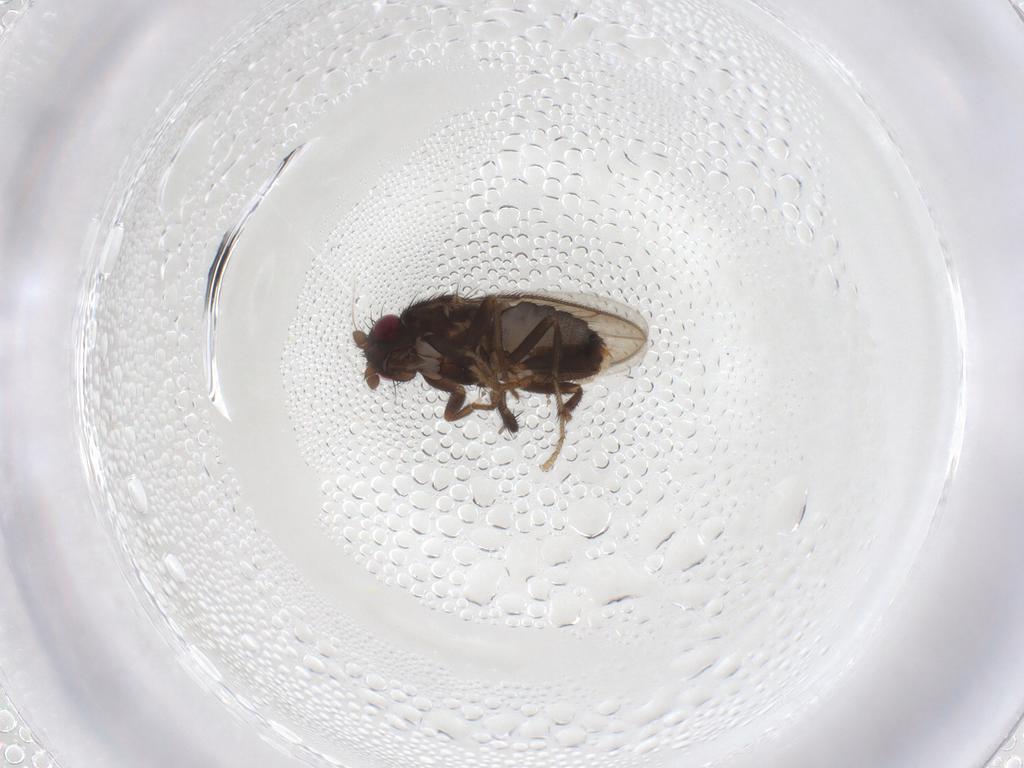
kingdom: Animalia
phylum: Arthropoda
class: Insecta
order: Diptera
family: Sphaeroceridae
